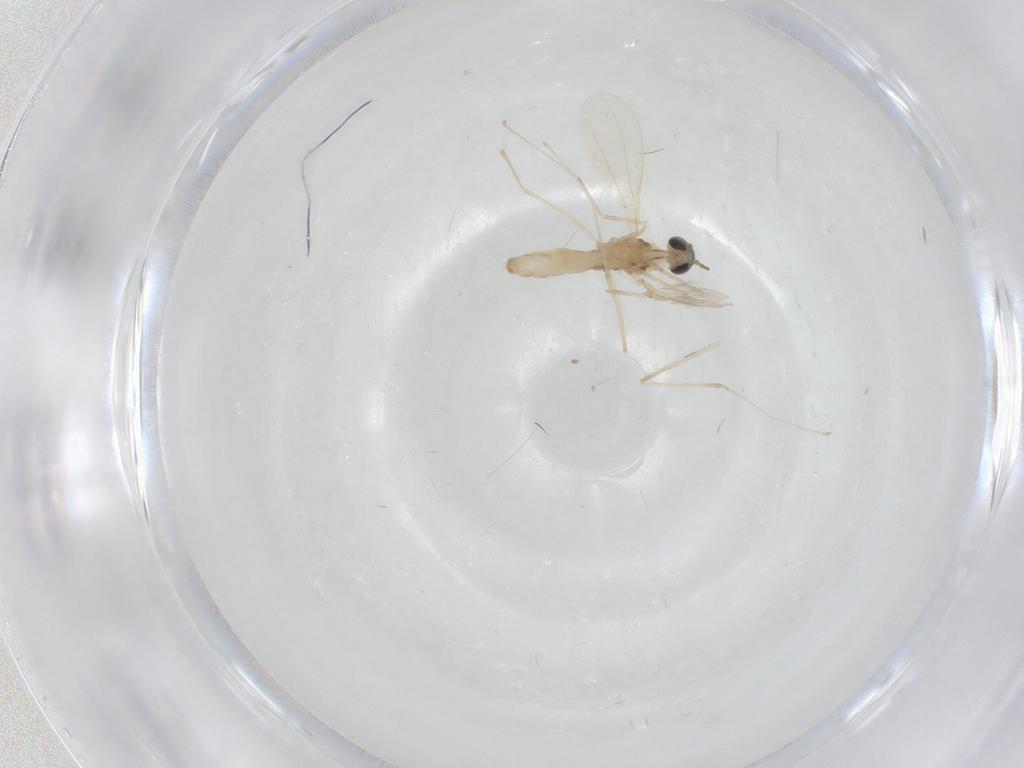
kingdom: Animalia
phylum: Arthropoda
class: Insecta
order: Diptera
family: Cecidomyiidae
